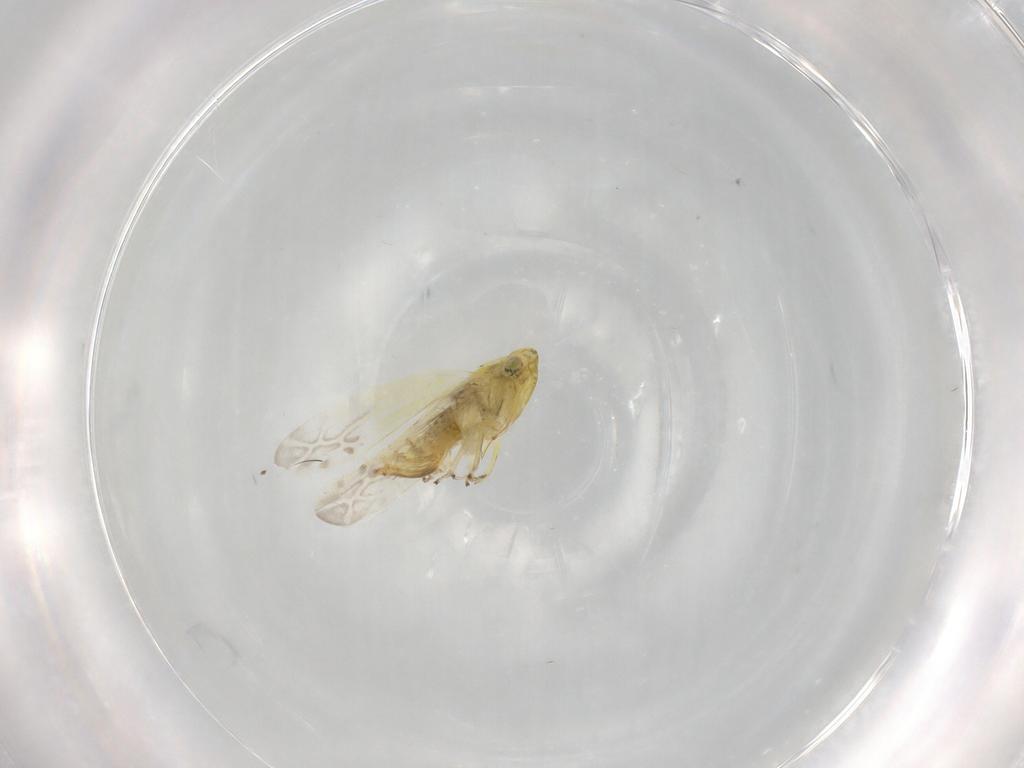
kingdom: Animalia
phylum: Arthropoda
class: Insecta
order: Hemiptera
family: Cicadellidae
